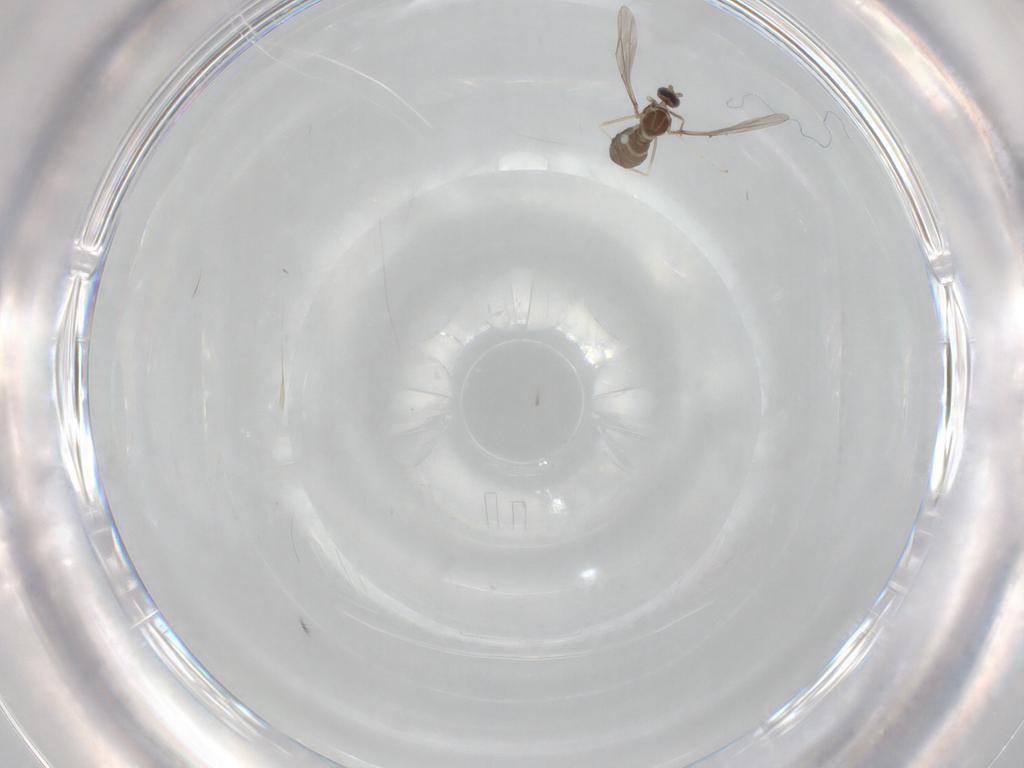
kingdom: Animalia
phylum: Arthropoda
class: Insecta
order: Diptera
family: Cecidomyiidae
